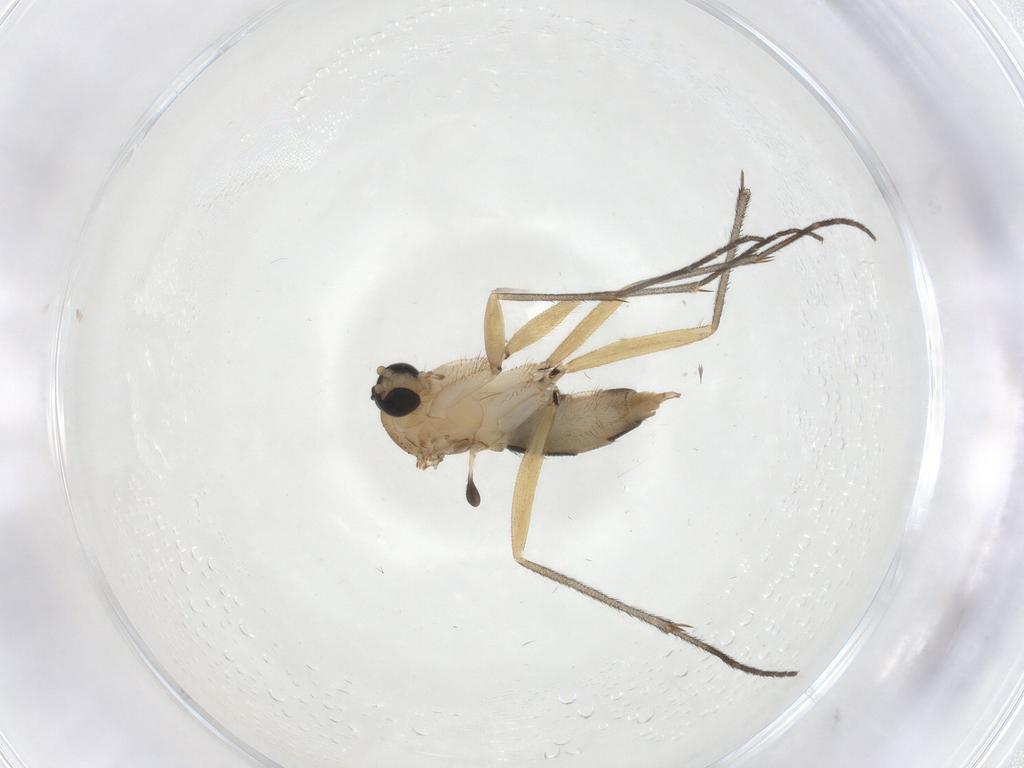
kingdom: Animalia
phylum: Arthropoda
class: Insecta
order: Diptera
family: Sciaridae
